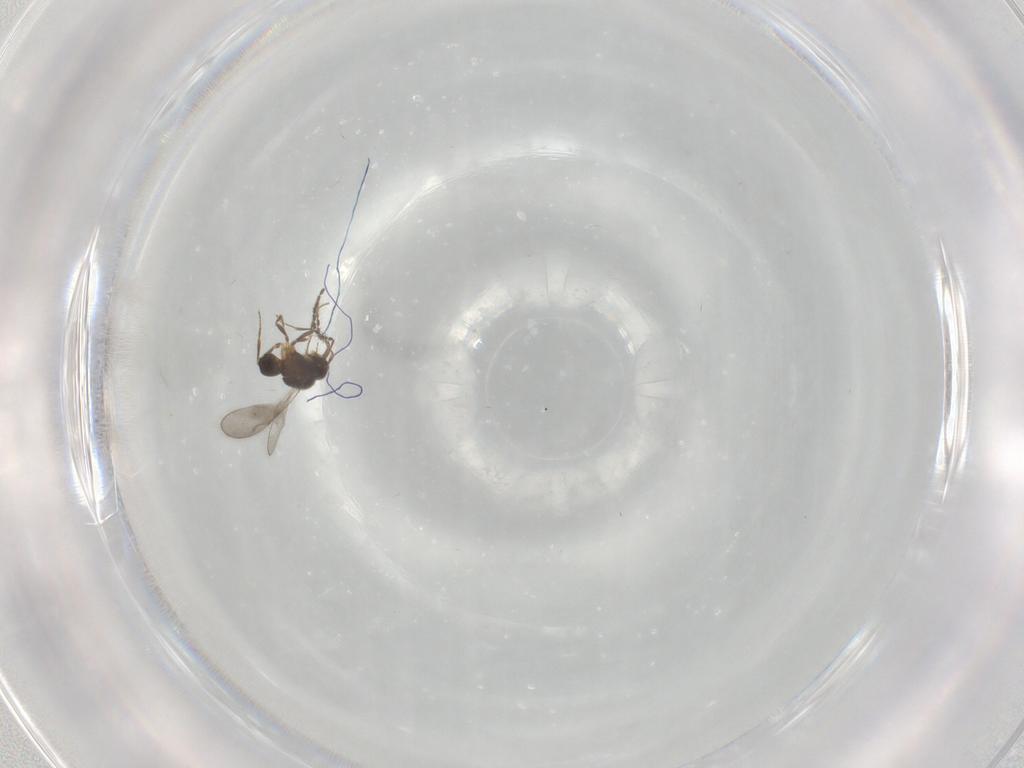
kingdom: Animalia
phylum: Arthropoda
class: Insecta
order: Hymenoptera
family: Ceraphronidae
